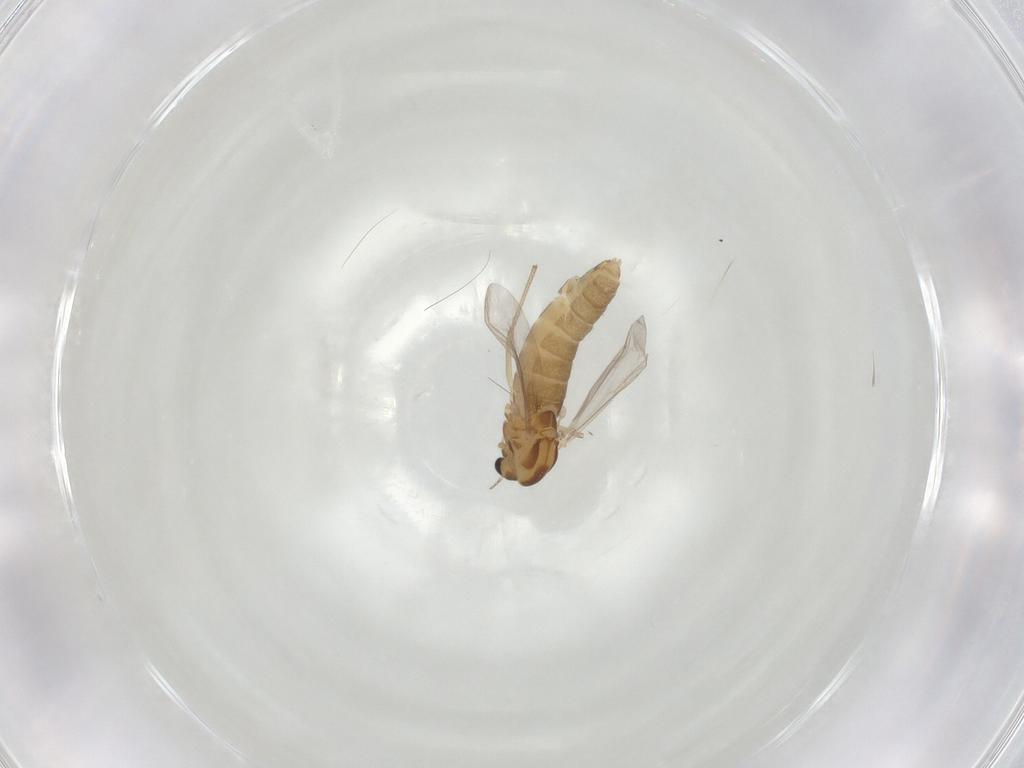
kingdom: Animalia
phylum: Arthropoda
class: Insecta
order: Diptera
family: Chironomidae
